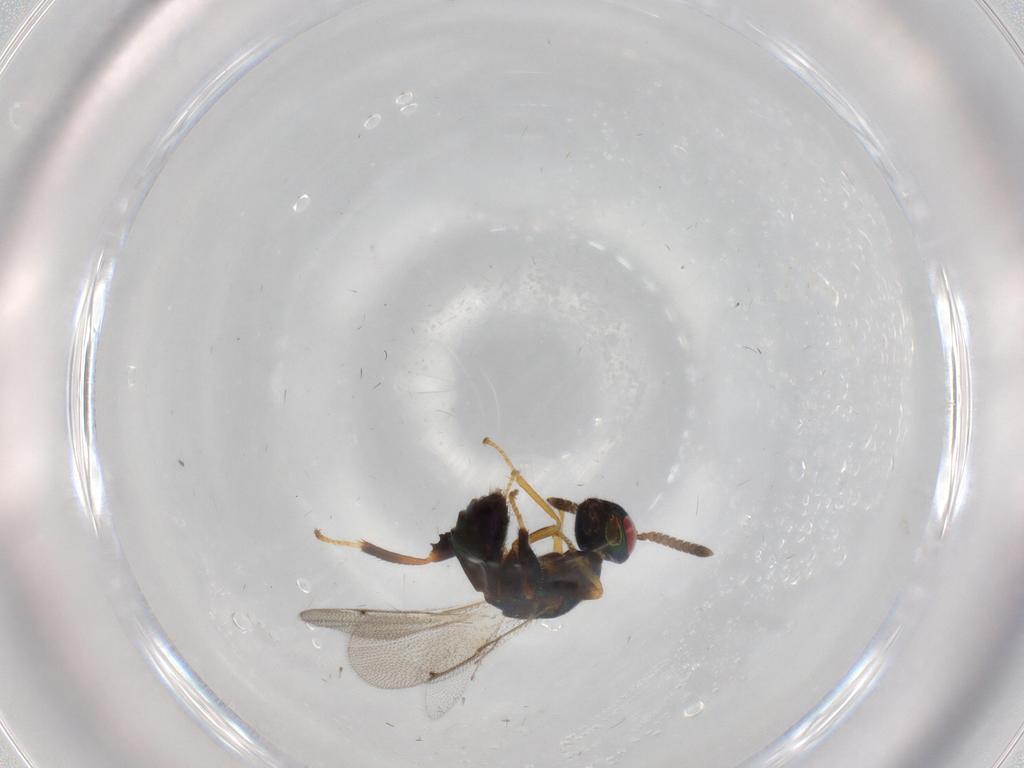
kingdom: Animalia
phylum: Arthropoda
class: Insecta
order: Hymenoptera
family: Torymidae
